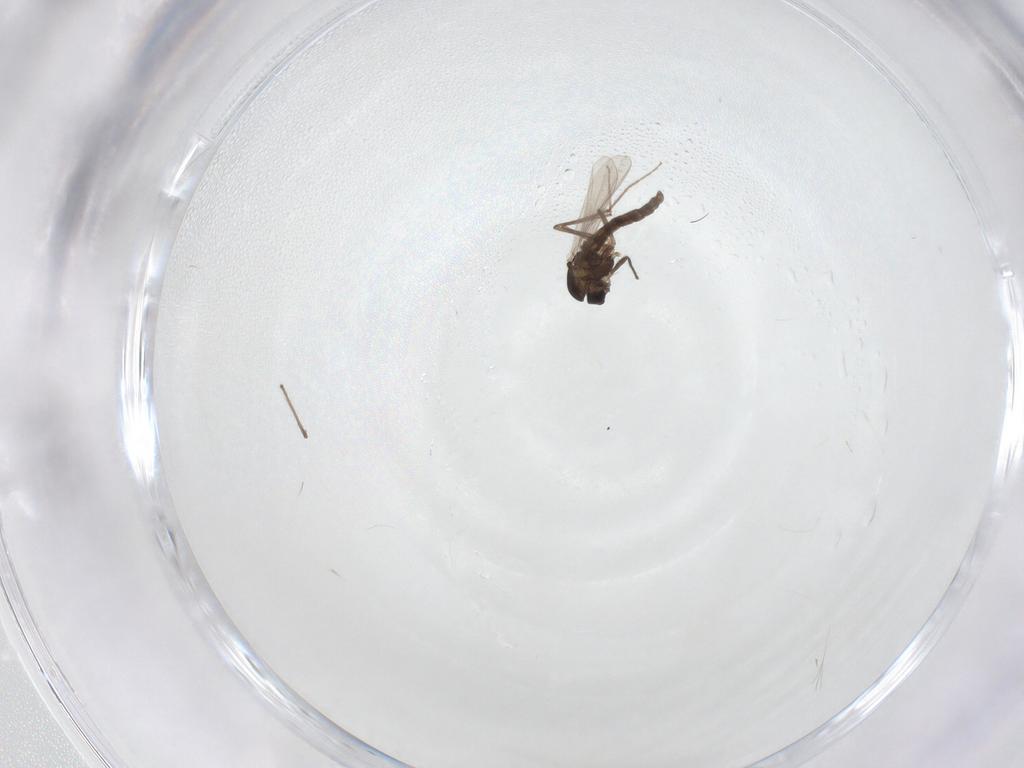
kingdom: Animalia
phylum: Arthropoda
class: Insecta
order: Diptera
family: Chironomidae
